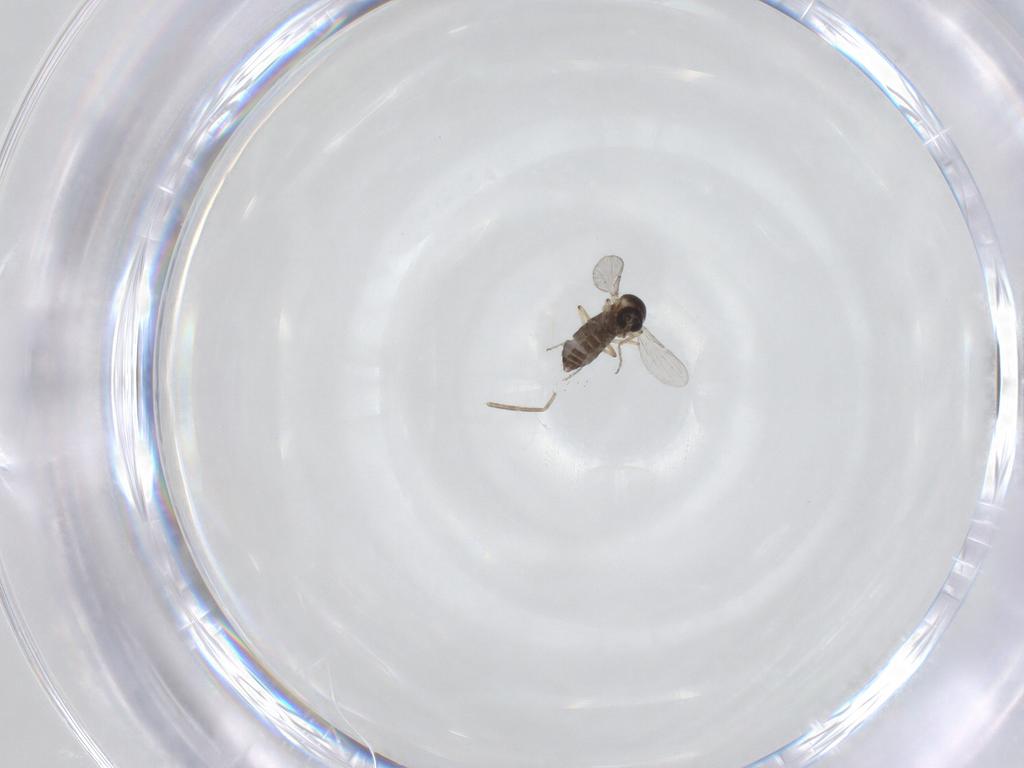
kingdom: Animalia
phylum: Arthropoda
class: Insecta
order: Diptera
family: Ceratopogonidae
